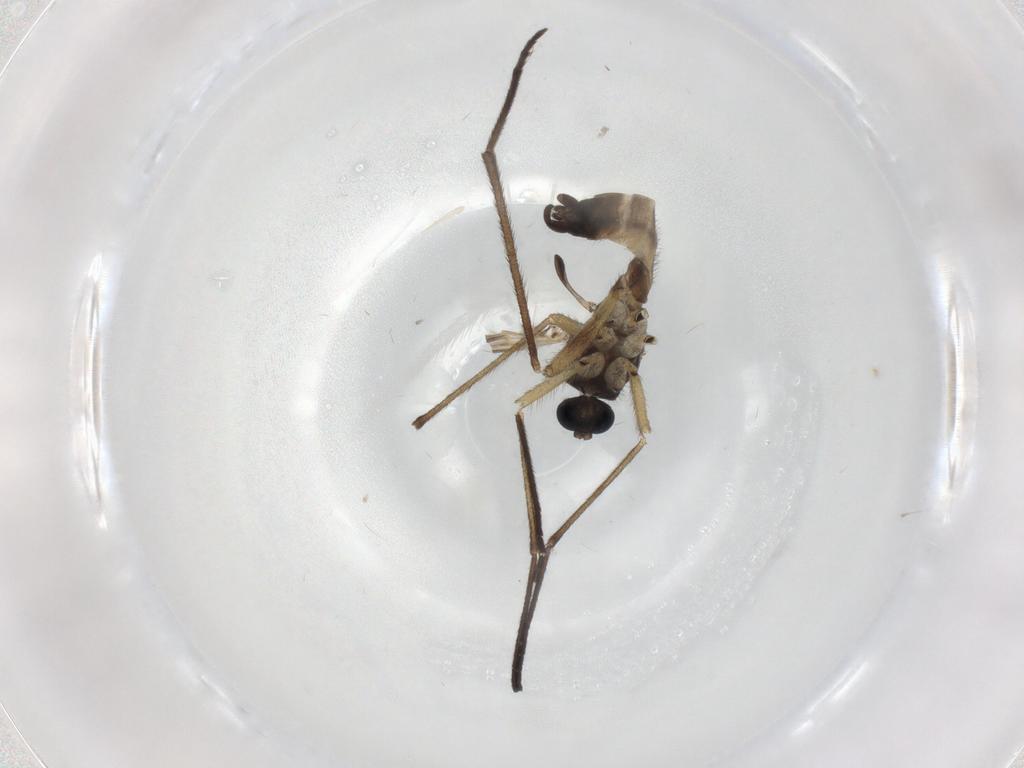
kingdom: Animalia
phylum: Arthropoda
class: Insecta
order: Diptera
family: Sciaridae
